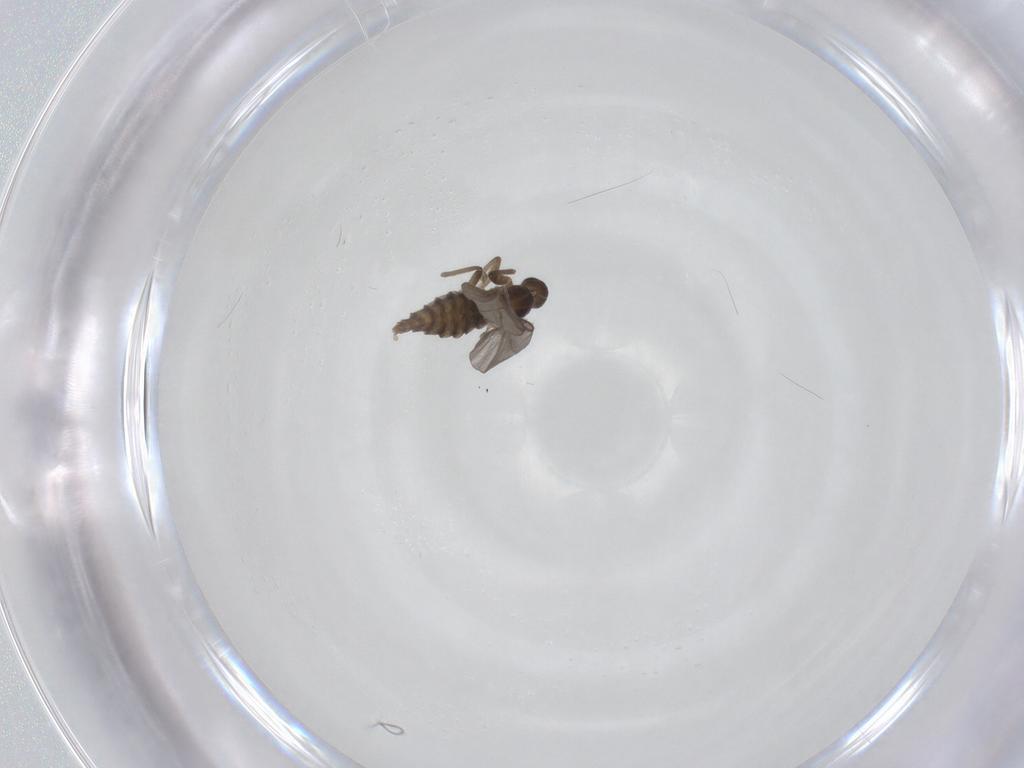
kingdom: Animalia
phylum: Arthropoda
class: Insecta
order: Diptera
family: Cecidomyiidae
